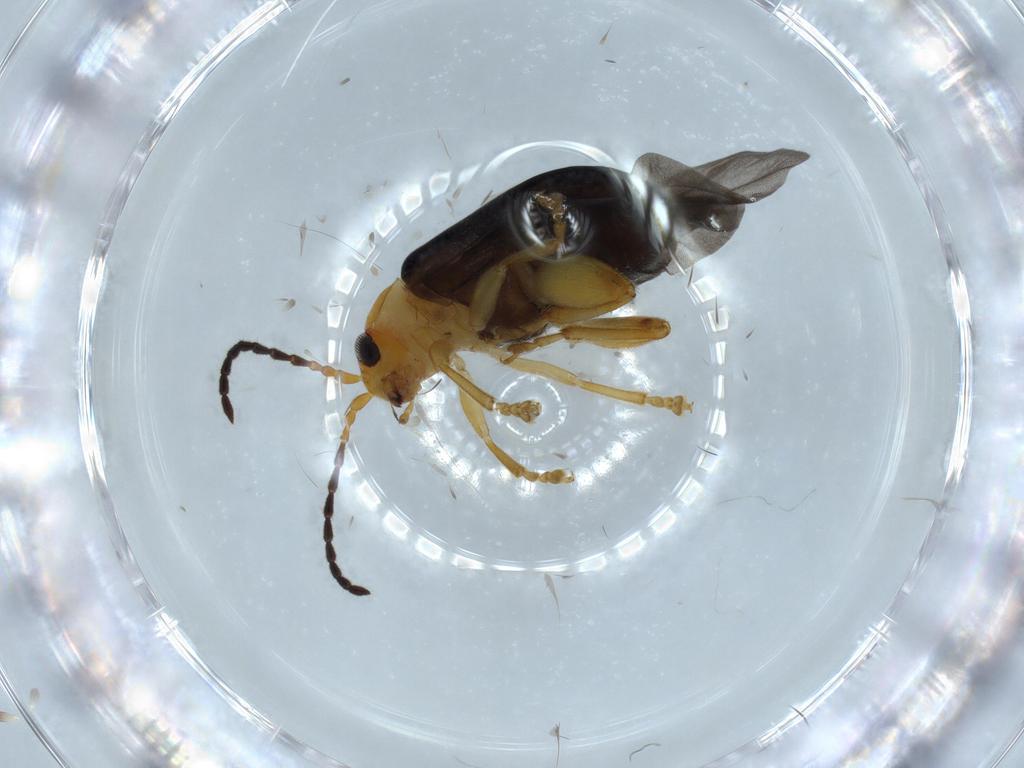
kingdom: Animalia
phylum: Arthropoda
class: Insecta
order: Coleoptera
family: Chrysomelidae
